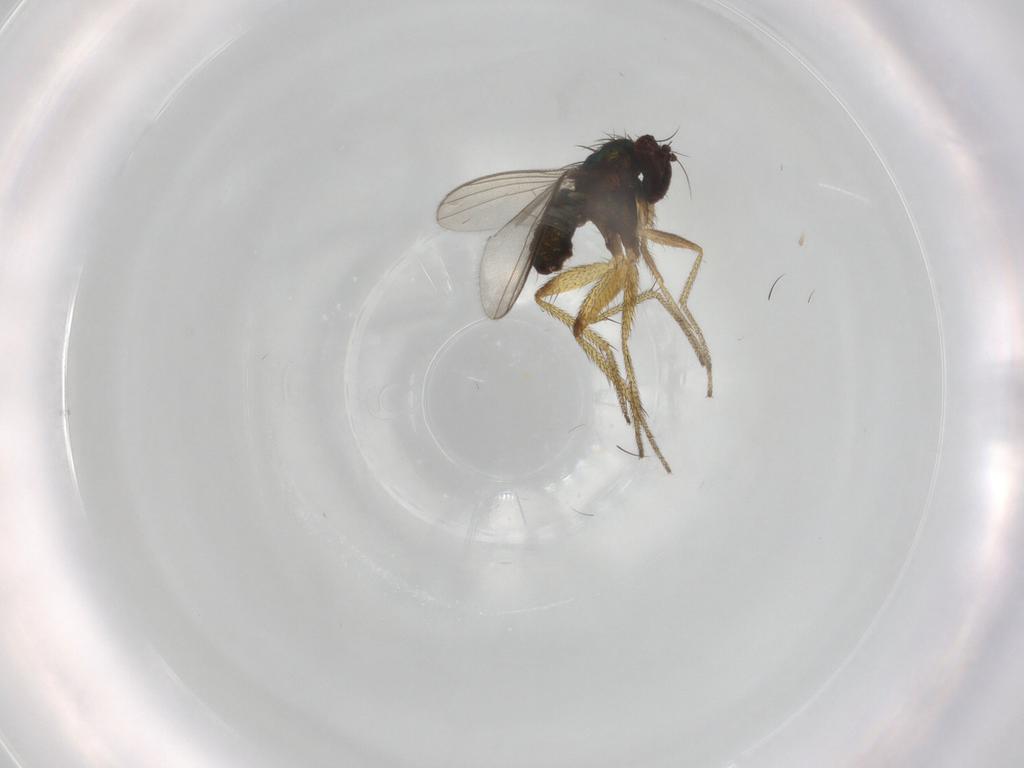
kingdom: Animalia
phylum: Arthropoda
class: Insecta
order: Diptera
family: Dolichopodidae
